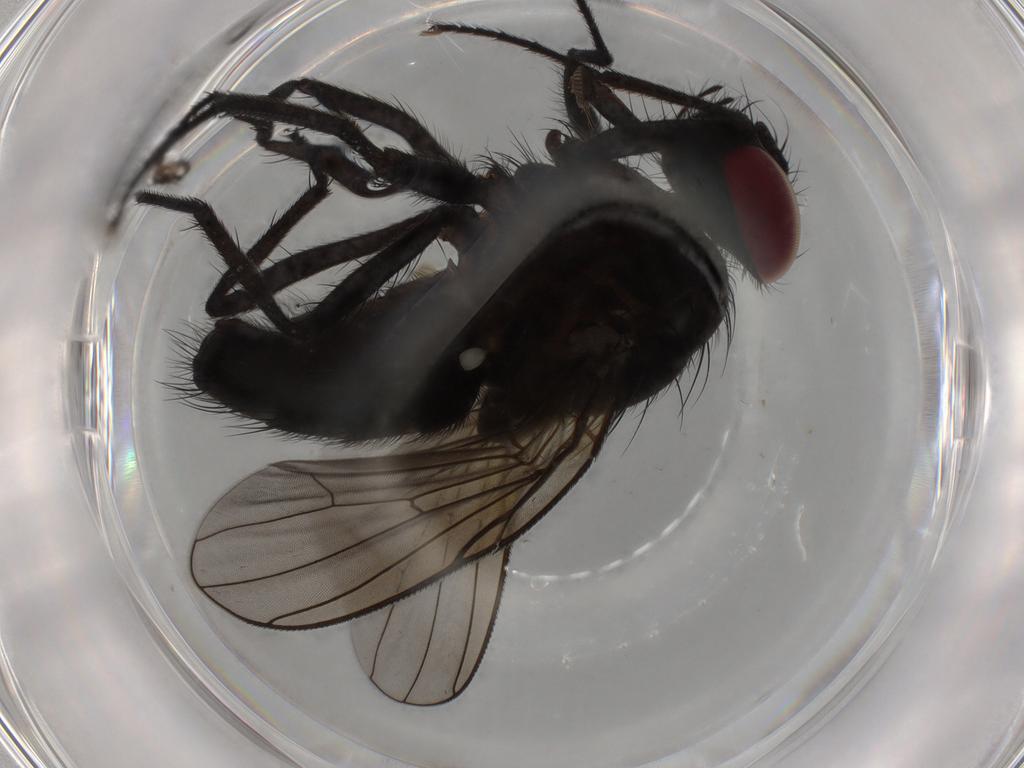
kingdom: Animalia
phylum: Arthropoda
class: Insecta
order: Diptera
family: Muscidae
